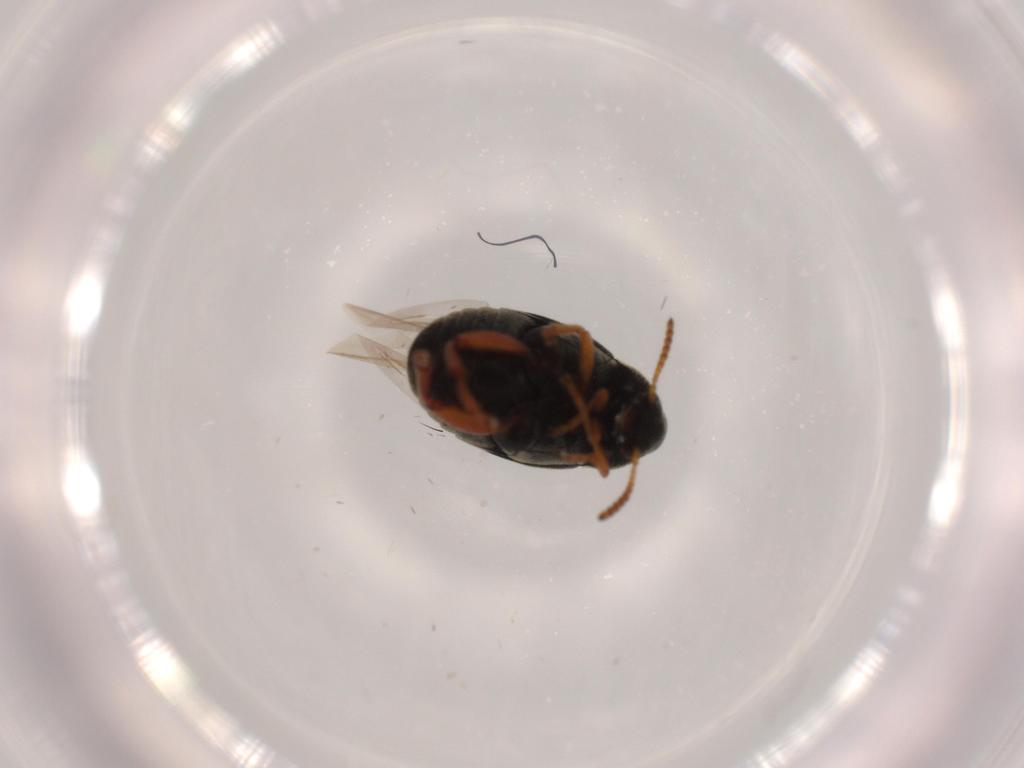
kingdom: Animalia
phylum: Arthropoda
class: Insecta
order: Coleoptera
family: Chrysomelidae
